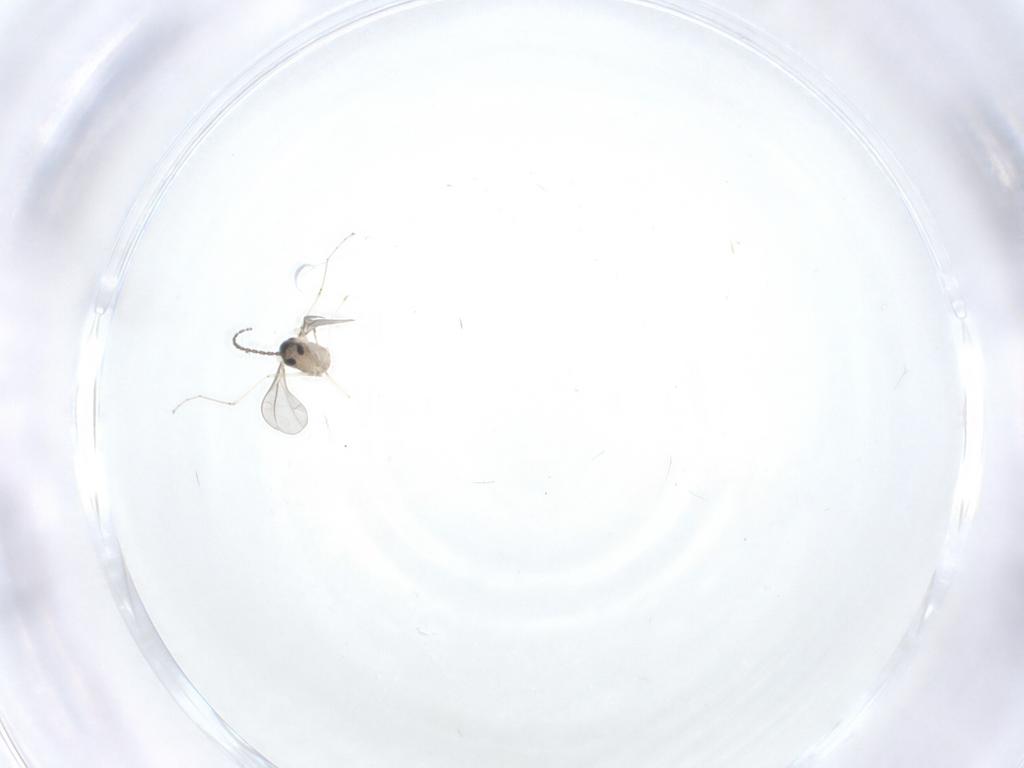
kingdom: Animalia
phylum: Arthropoda
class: Insecta
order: Diptera
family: Psychodidae
